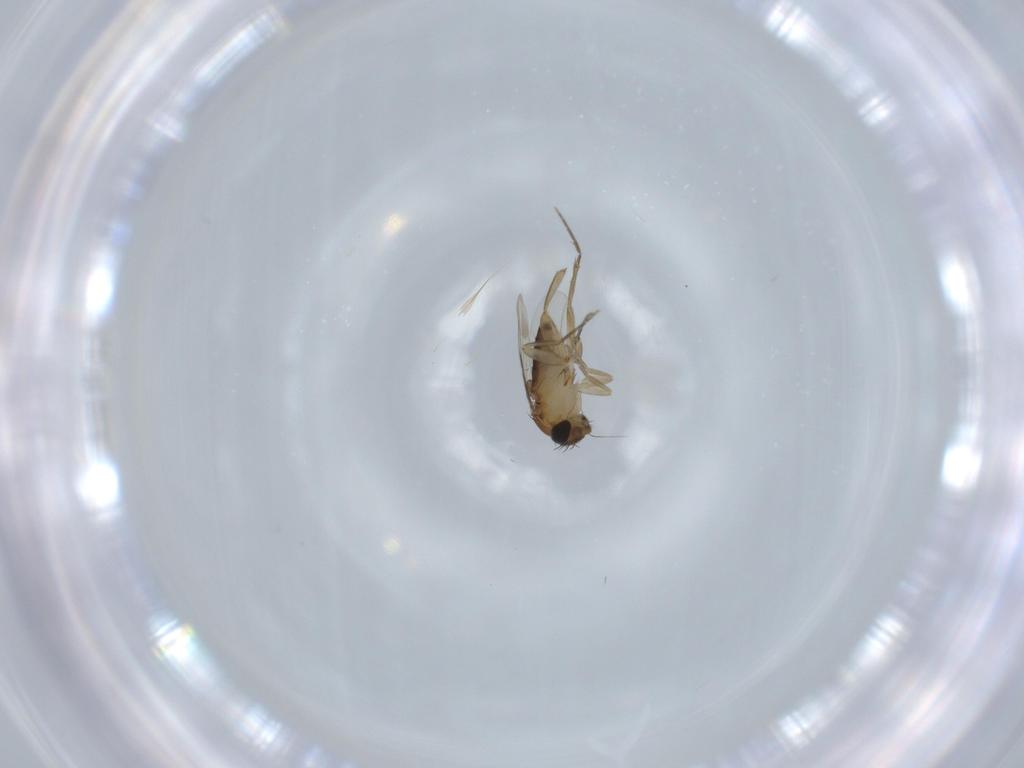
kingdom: Animalia
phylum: Arthropoda
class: Insecta
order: Diptera
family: Phoridae
